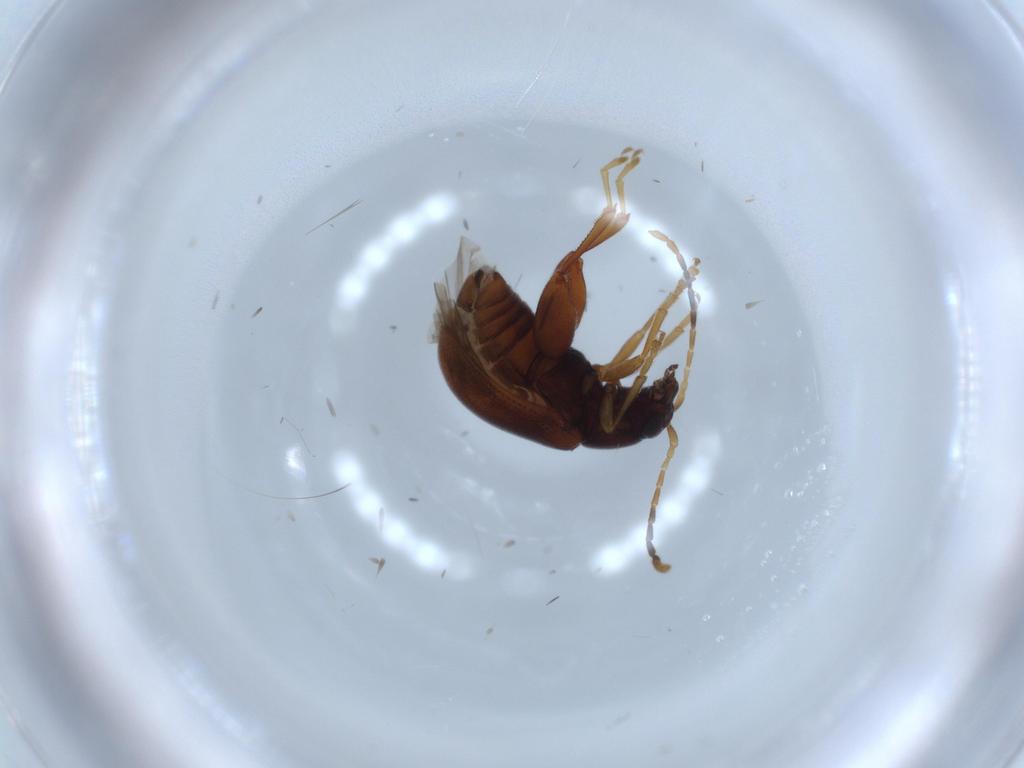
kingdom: Animalia
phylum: Arthropoda
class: Insecta
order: Coleoptera
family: Chrysomelidae
